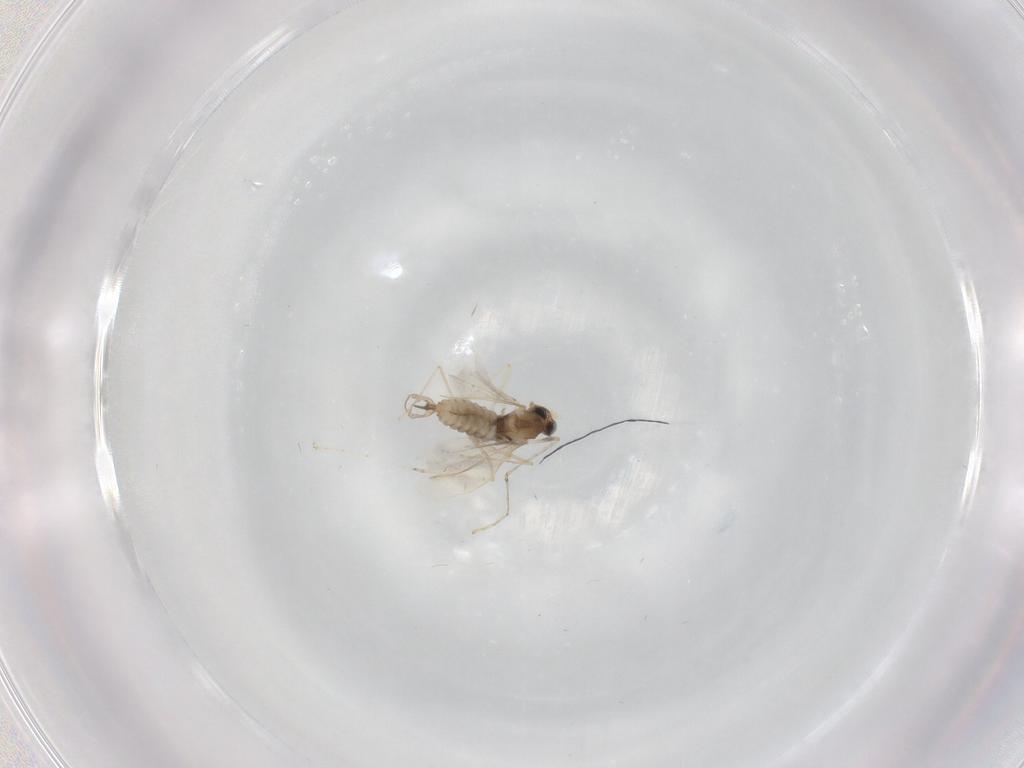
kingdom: Animalia
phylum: Arthropoda
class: Insecta
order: Diptera
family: Cecidomyiidae
